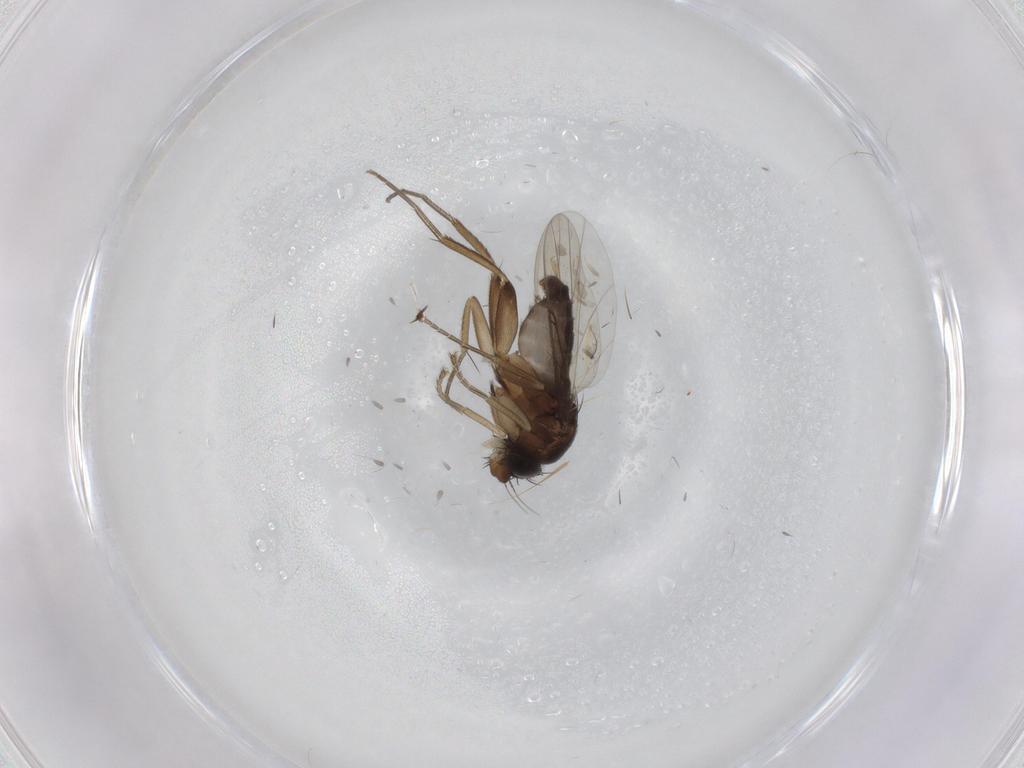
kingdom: Animalia
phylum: Arthropoda
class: Insecta
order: Diptera
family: Phoridae
